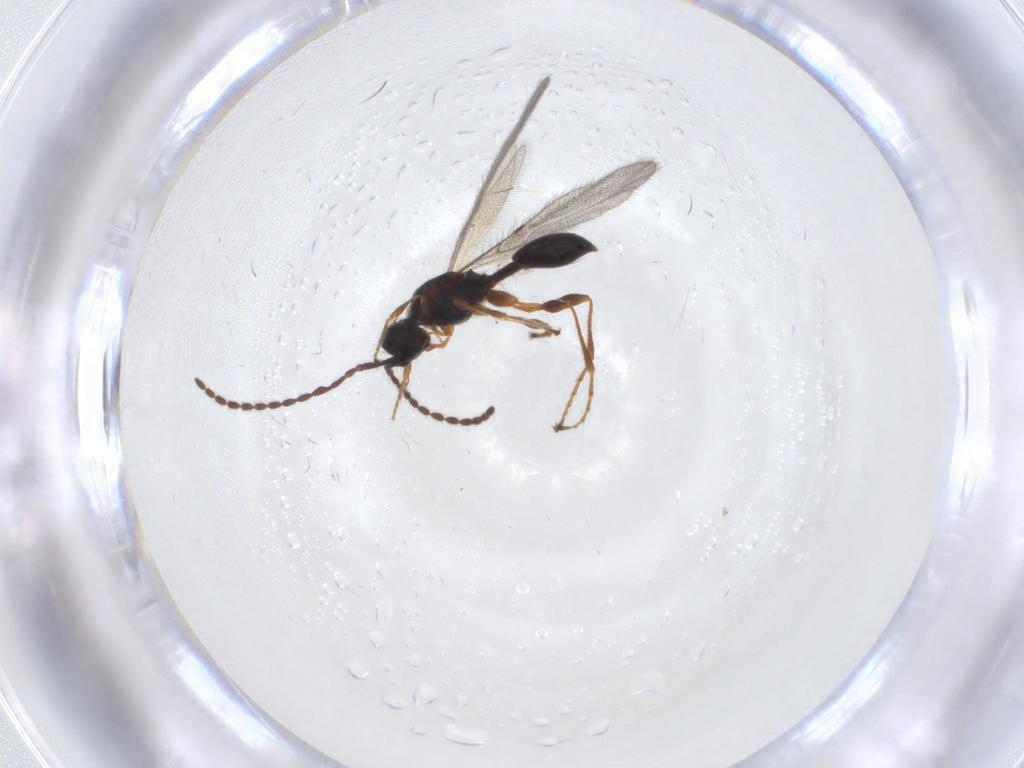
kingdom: Animalia
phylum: Arthropoda
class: Insecta
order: Hymenoptera
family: Diapriidae
